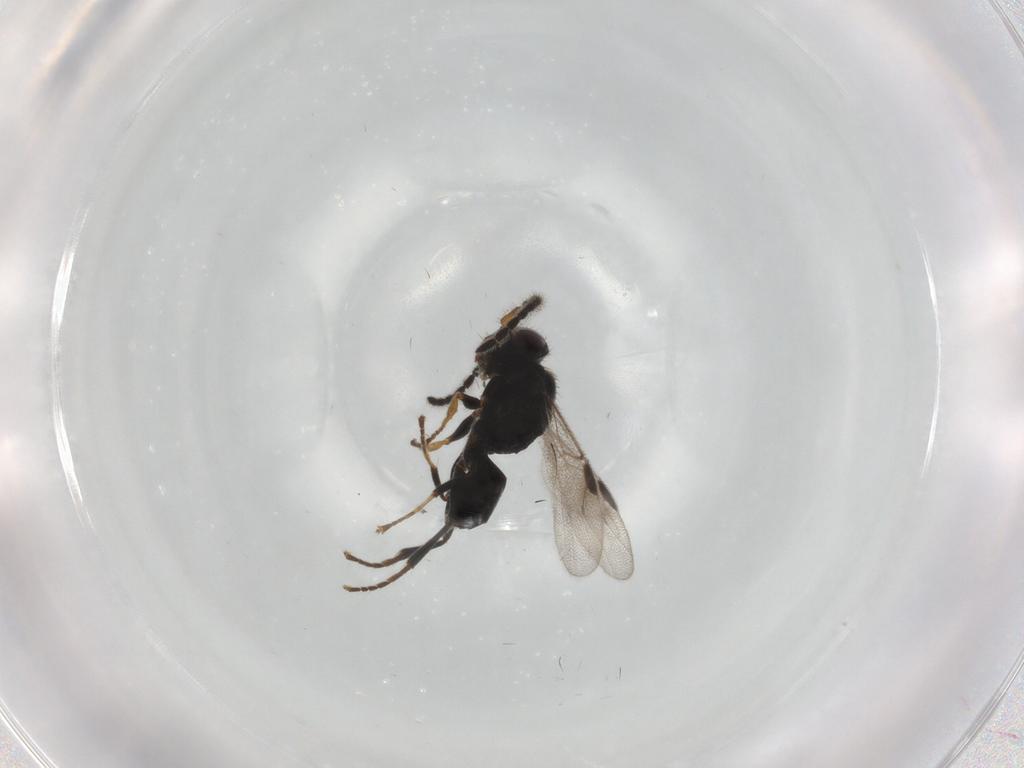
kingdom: Animalia
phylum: Arthropoda
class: Insecta
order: Hymenoptera
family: Dryinidae
